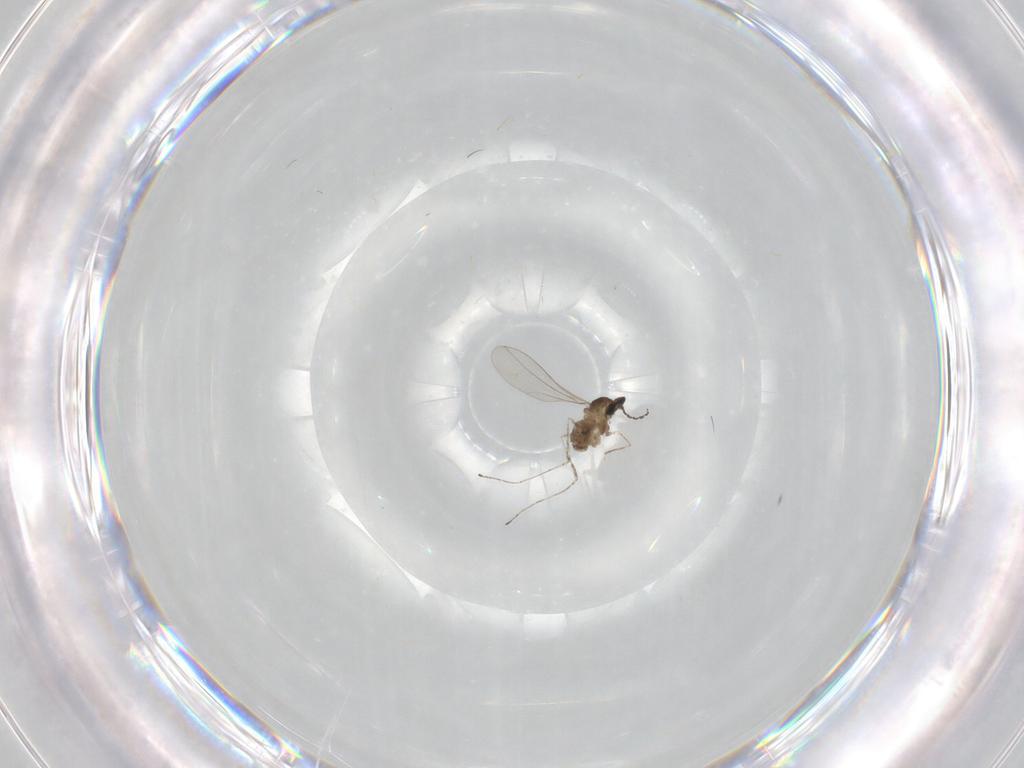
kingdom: Animalia
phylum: Arthropoda
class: Insecta
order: Diptera
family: Cecidomyiidae
